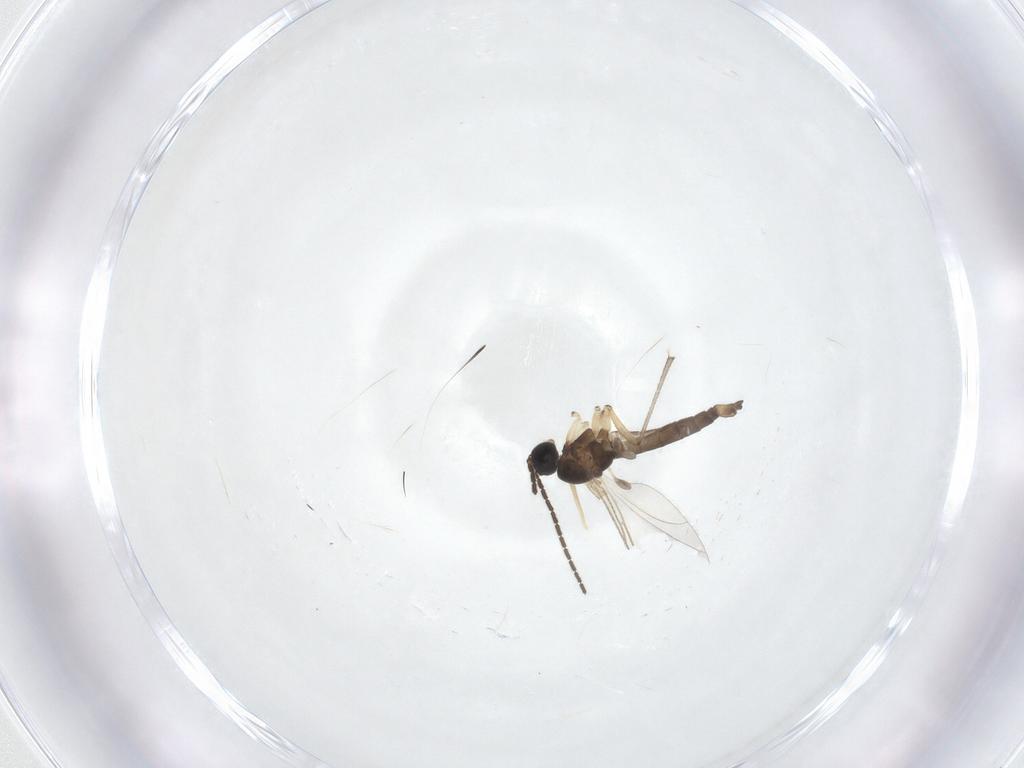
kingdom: Animalia
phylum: Arthropoda
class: Insecta
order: Diptera
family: Sciaridae
